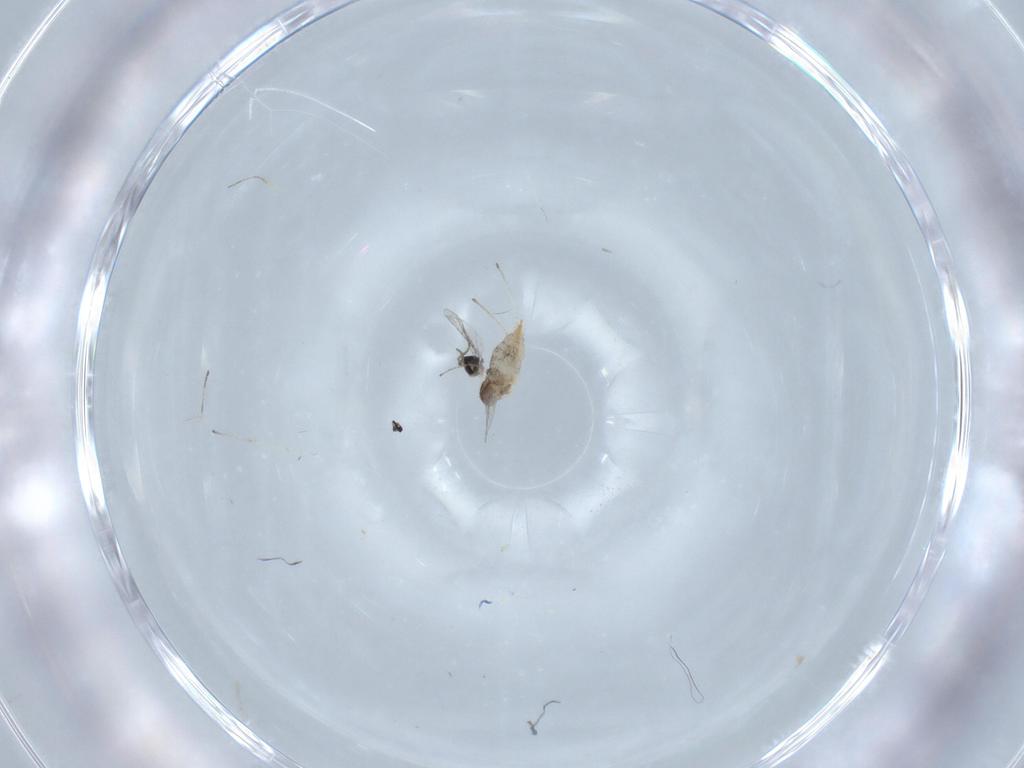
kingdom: Animalia
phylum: Arthropoda
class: Insecta
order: Diptera
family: Cecidomyiidae
